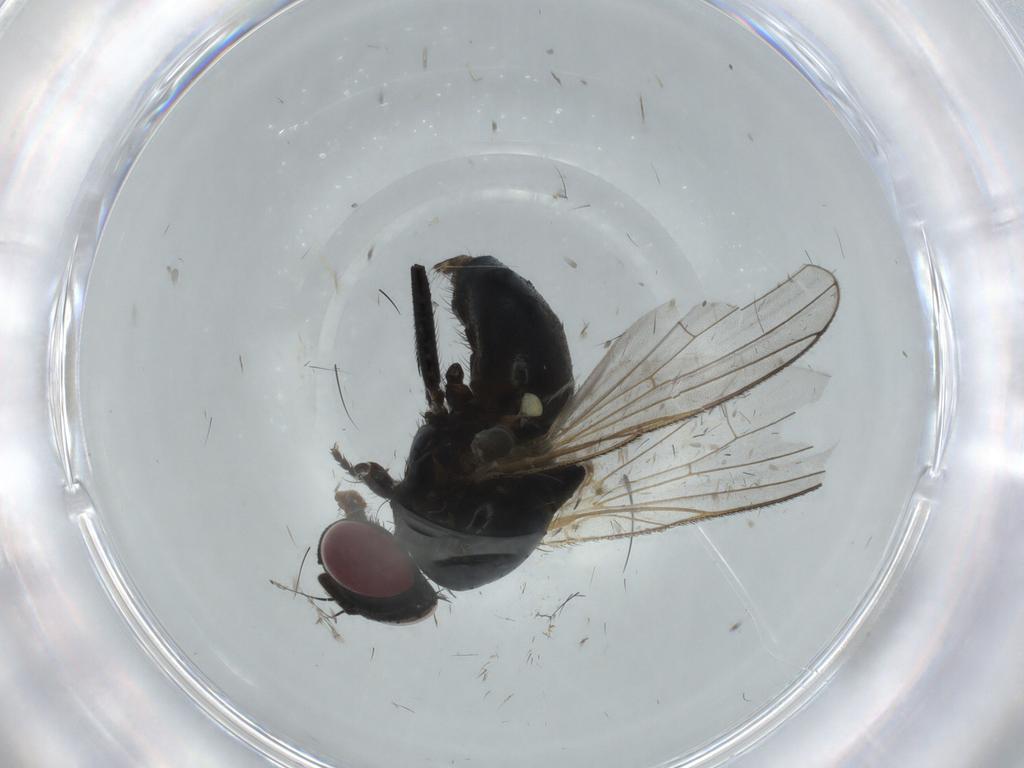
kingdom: Animalia
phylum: Arthropoda
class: Insecta
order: Diptera
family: Fannia
